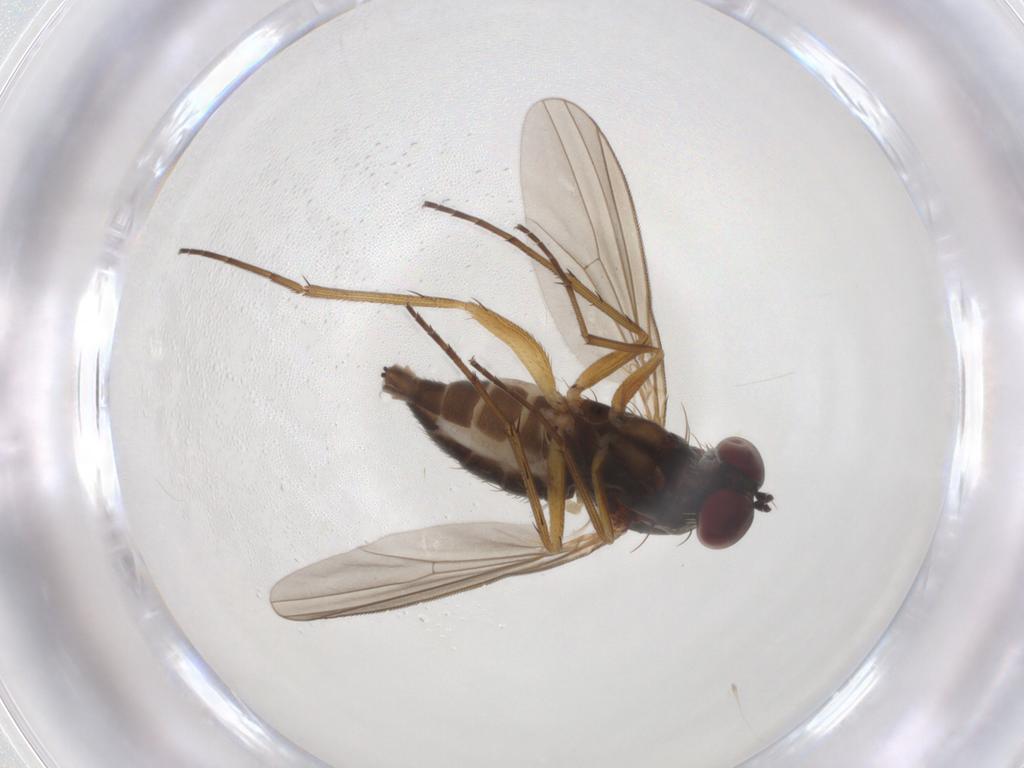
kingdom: Animalia
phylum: Arthropoda
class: Insecta
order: Diptera
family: Dolichopodidae
